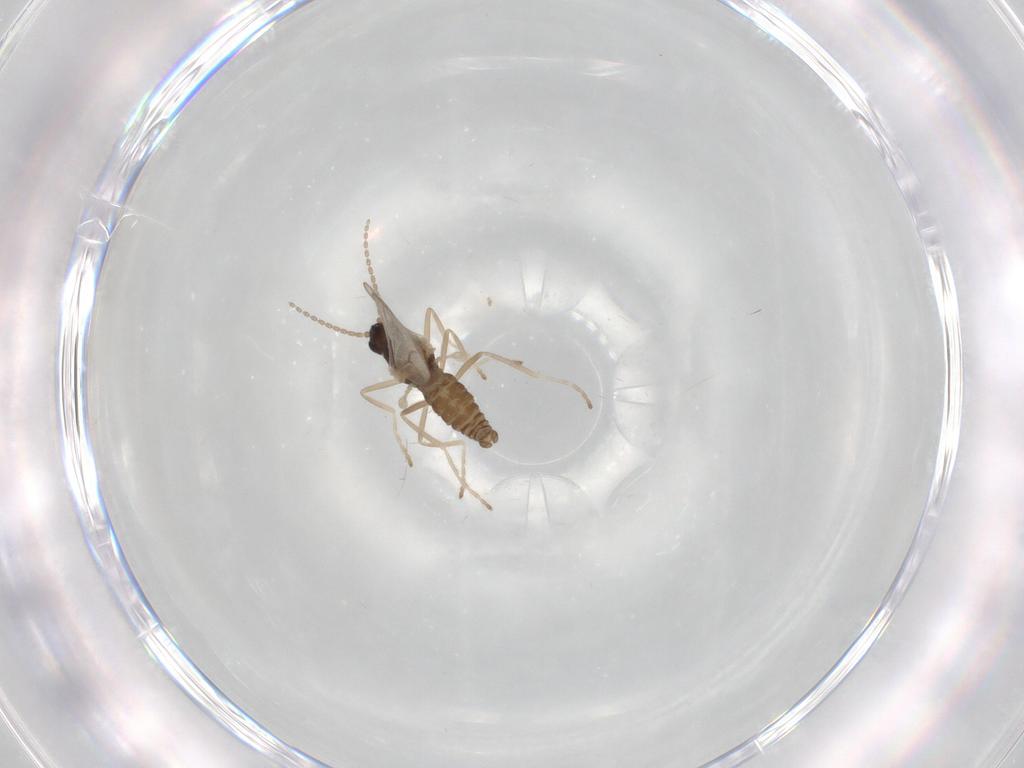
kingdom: Animalia
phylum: Arthropoda
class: Insecta
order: Diptera
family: Cecidomyiidae
